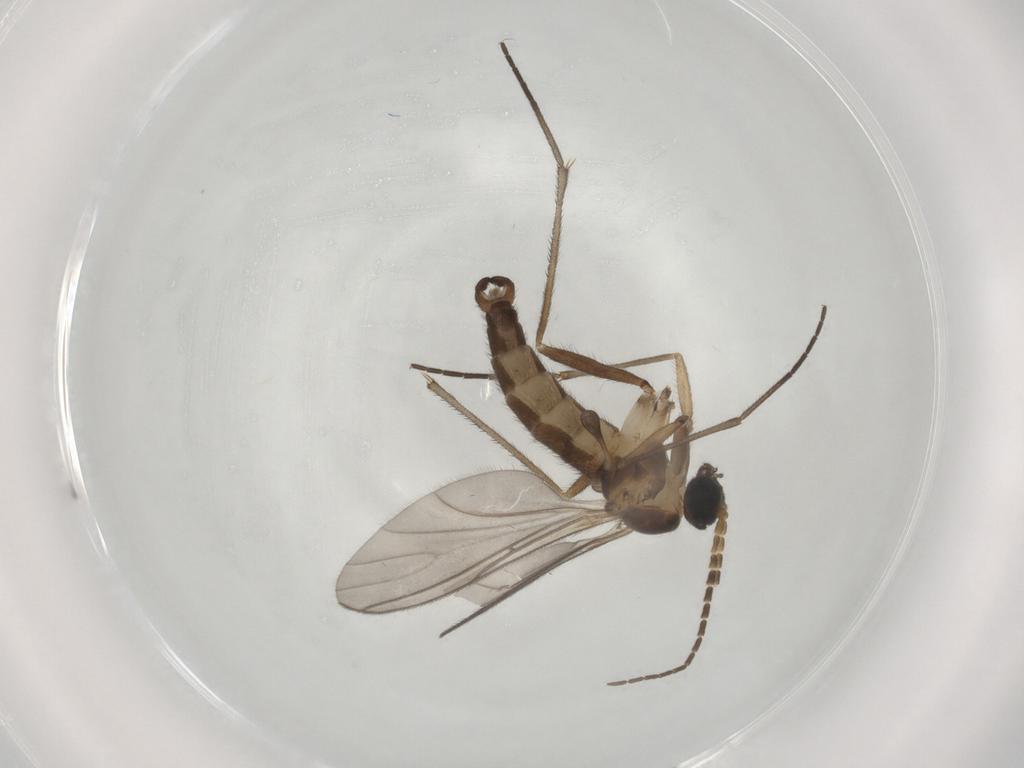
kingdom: Animalia
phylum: Arthropoda
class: Insecta
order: Diptera
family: Sciaridae
